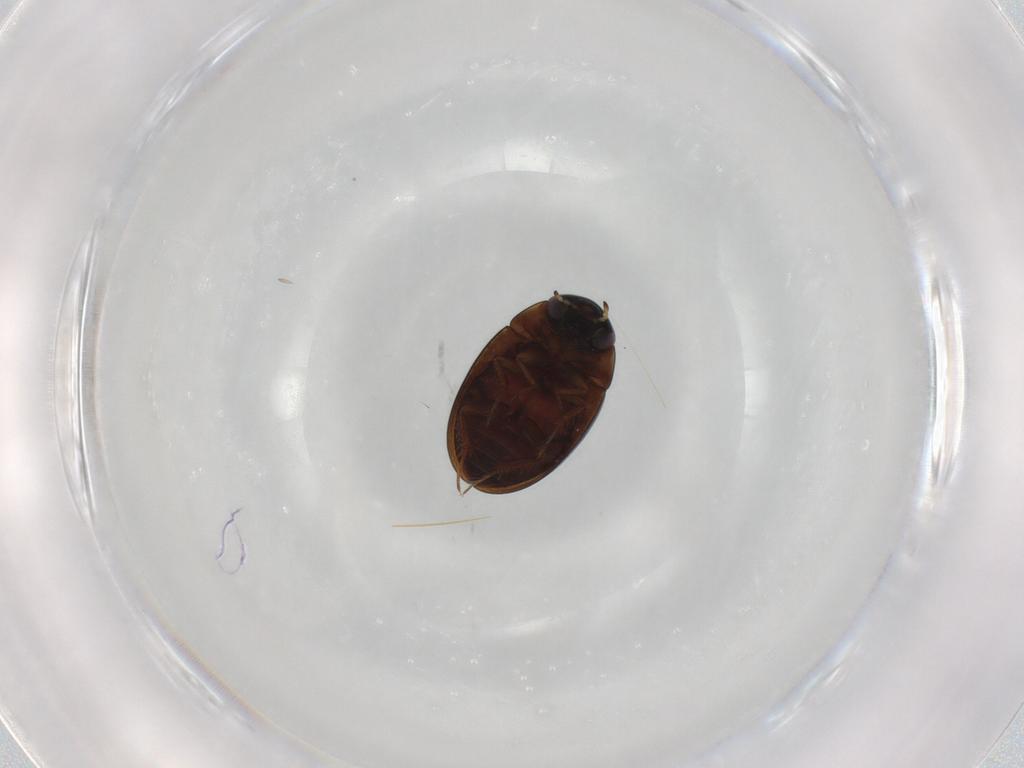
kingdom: Animalia
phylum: Arthropoda
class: Insecta
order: Coleoptera
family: Hydrophilidae
